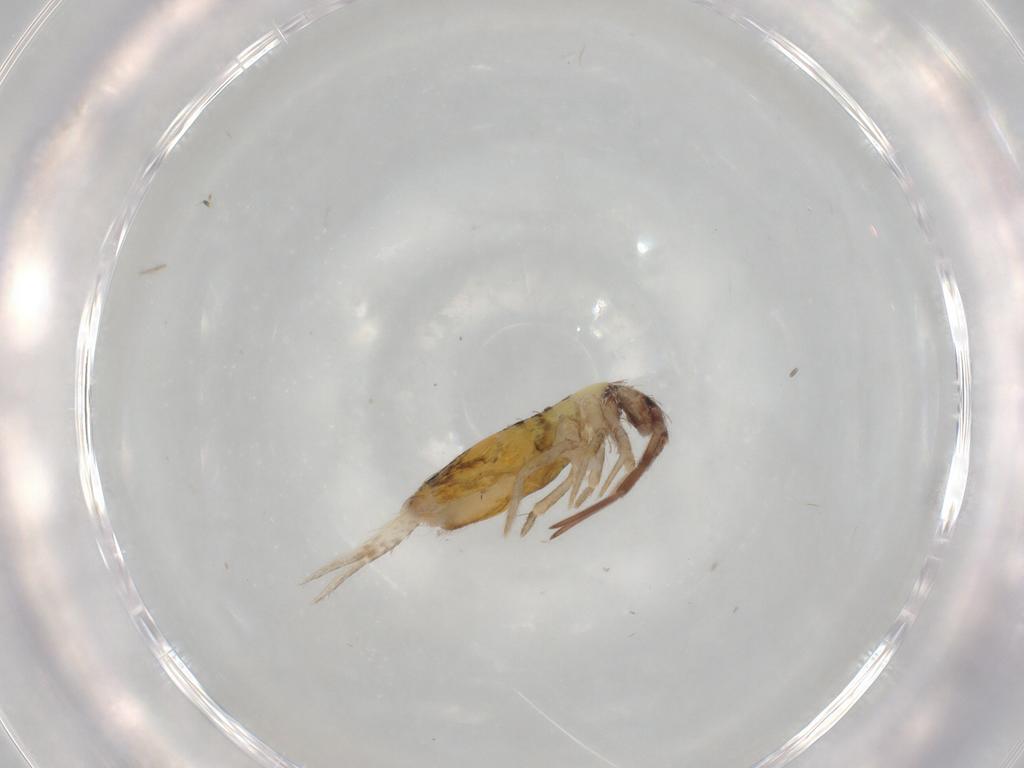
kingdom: Animalia
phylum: Arthropoda
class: Collembola
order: Entomobryomorpha
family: Entomobryidae
